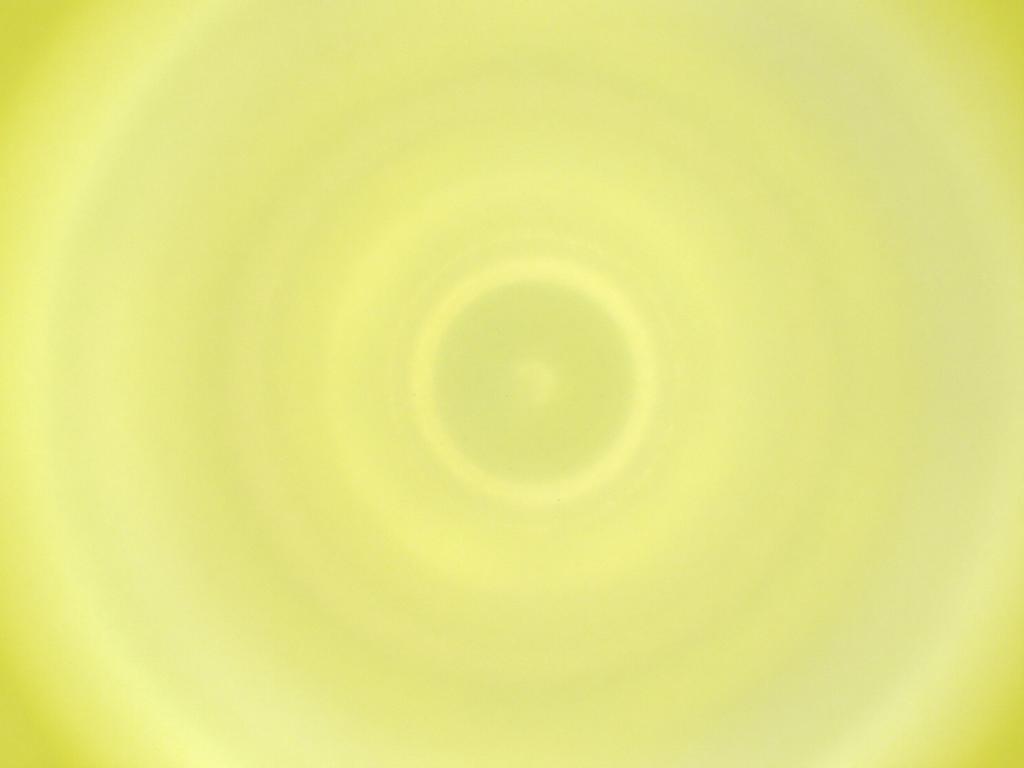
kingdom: Animalia
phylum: Arthropoda
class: Insecta
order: Diptera
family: Cecidomyiidae
